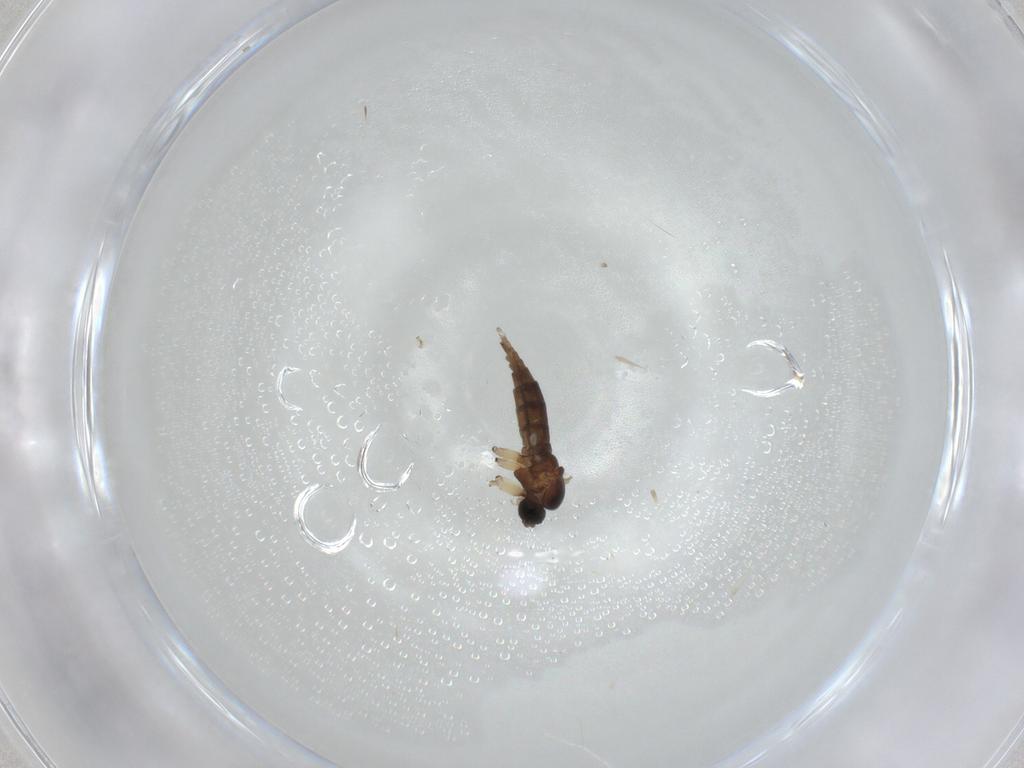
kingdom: Animalia
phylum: Arthropoda
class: Insecta
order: Diptera
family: Sciaridae
